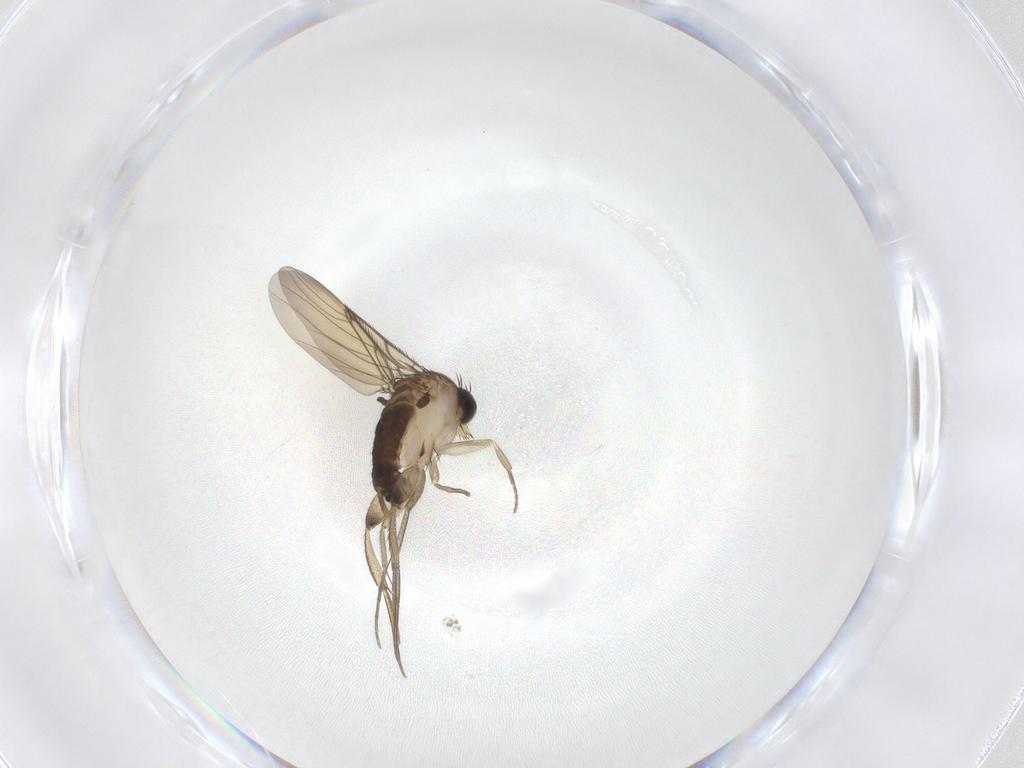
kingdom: Animalia
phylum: Arthropoda
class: Insecta
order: Diptera
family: Phoridae
